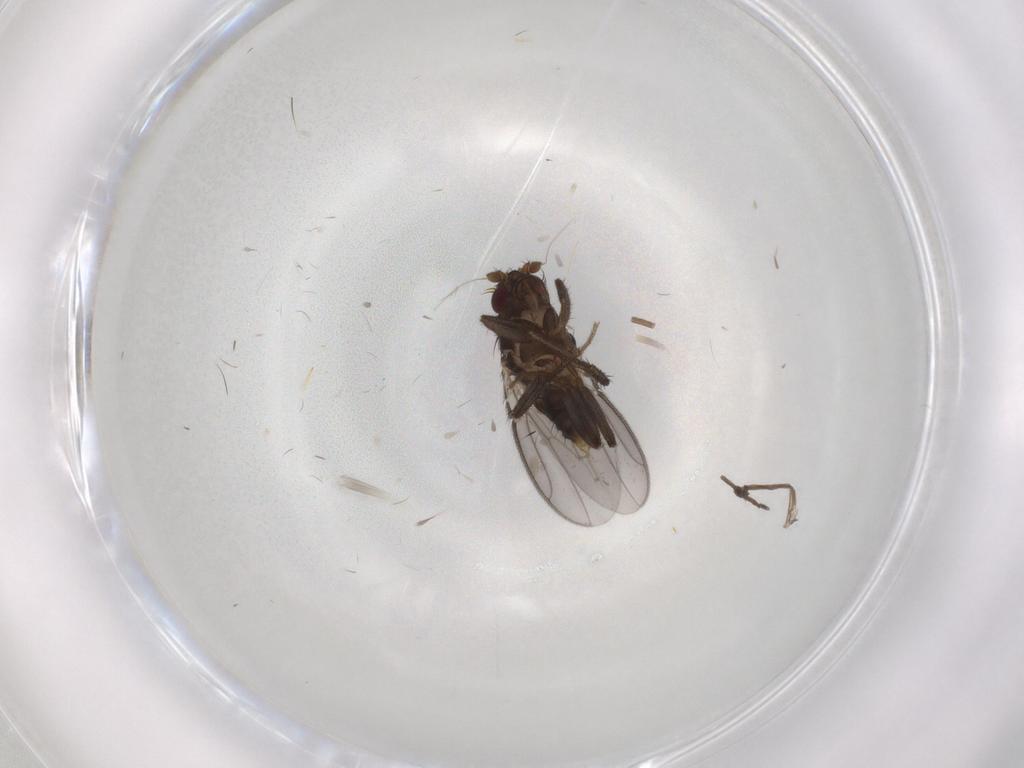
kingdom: Animalia
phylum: Arthropoda
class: Insecta
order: Diptera
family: Sphaeroceridae
